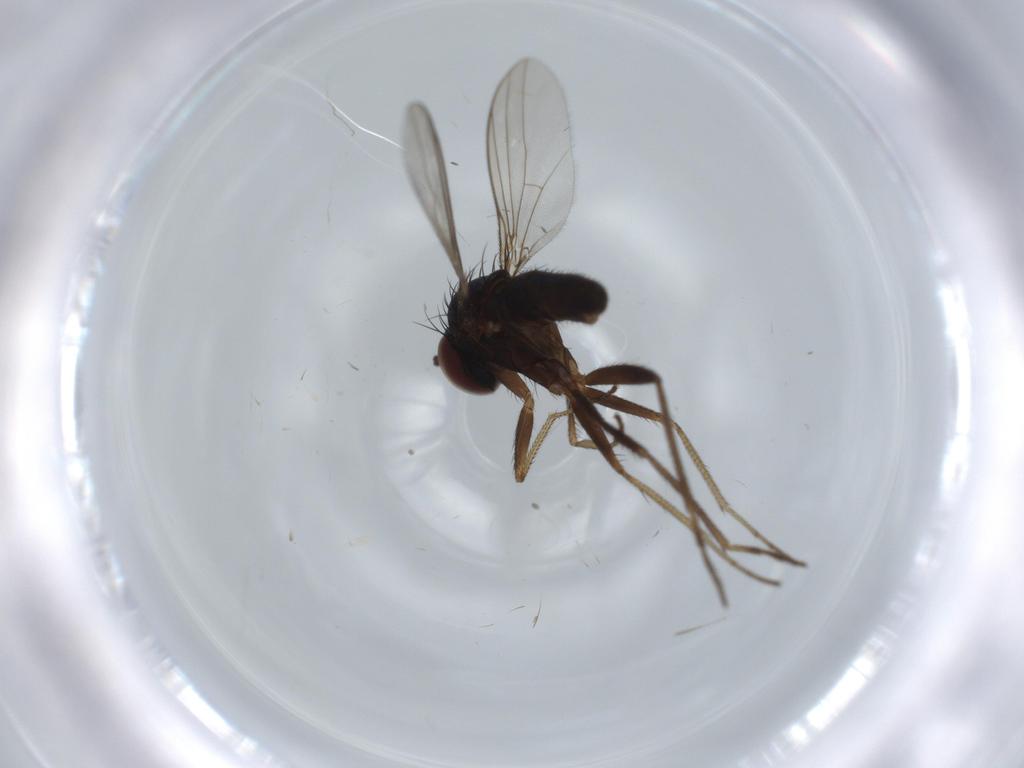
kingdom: Animalia
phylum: Arthropoda
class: Insecta
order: Diptera
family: Dolichopodidae
